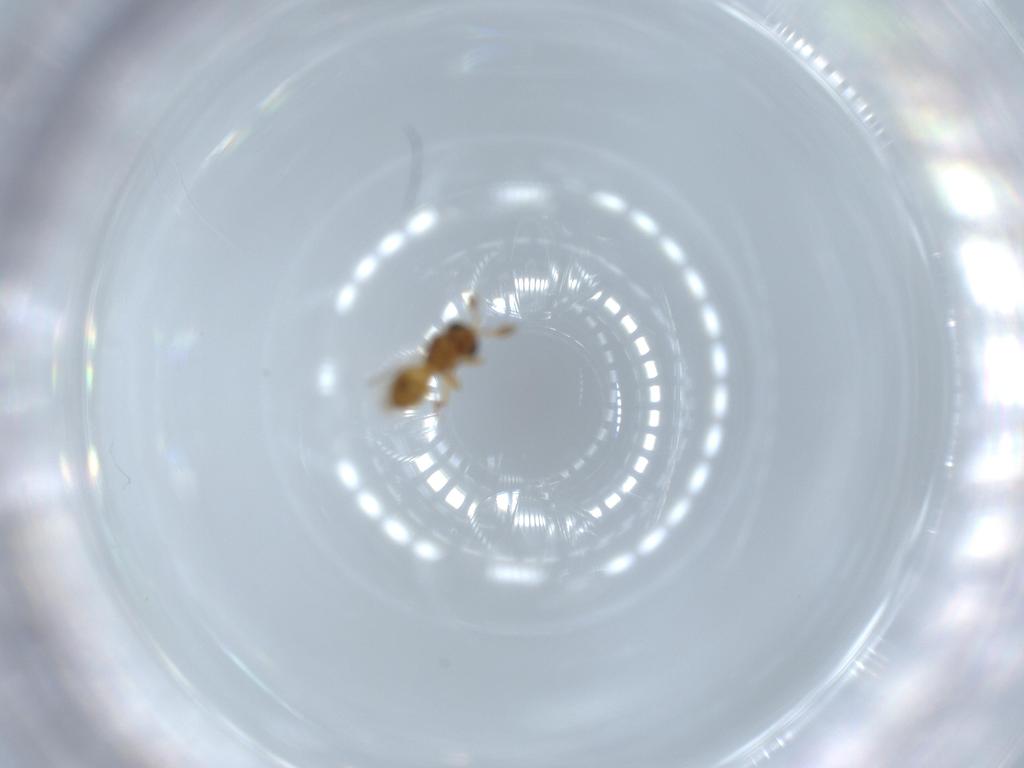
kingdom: Animalia
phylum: Arthropoda
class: Insecta
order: Hymenoptera
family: Scelionidae
